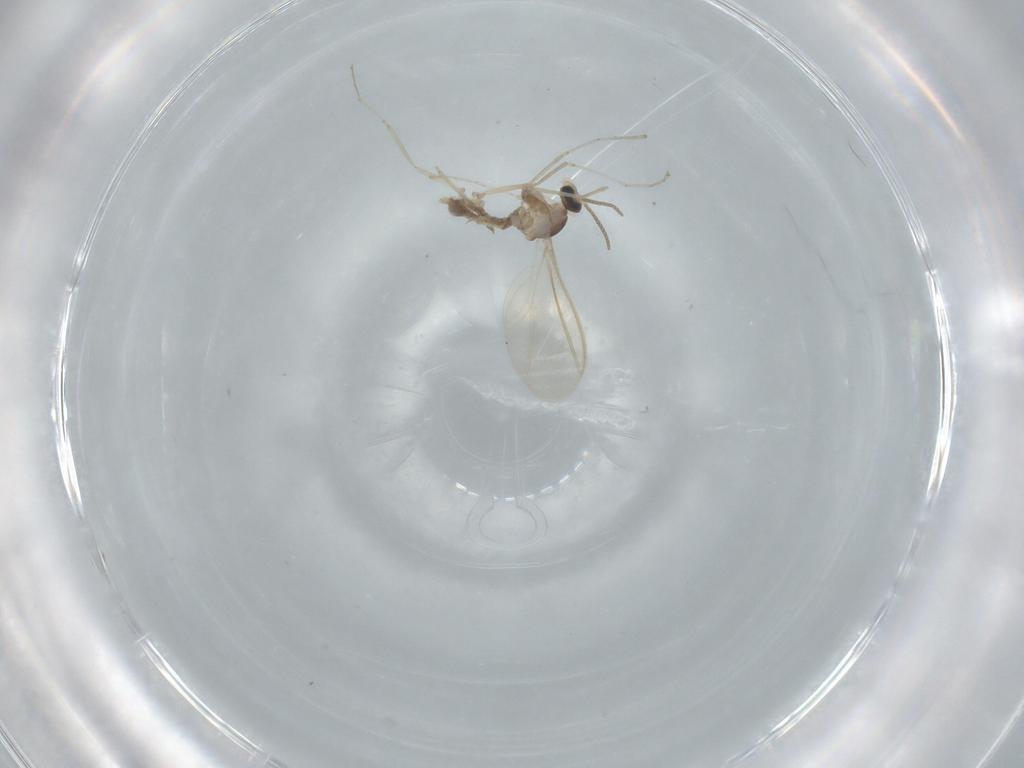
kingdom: Animalia
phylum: Arthropoda
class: Insecta
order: Diptera
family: Cecidomyiidae
